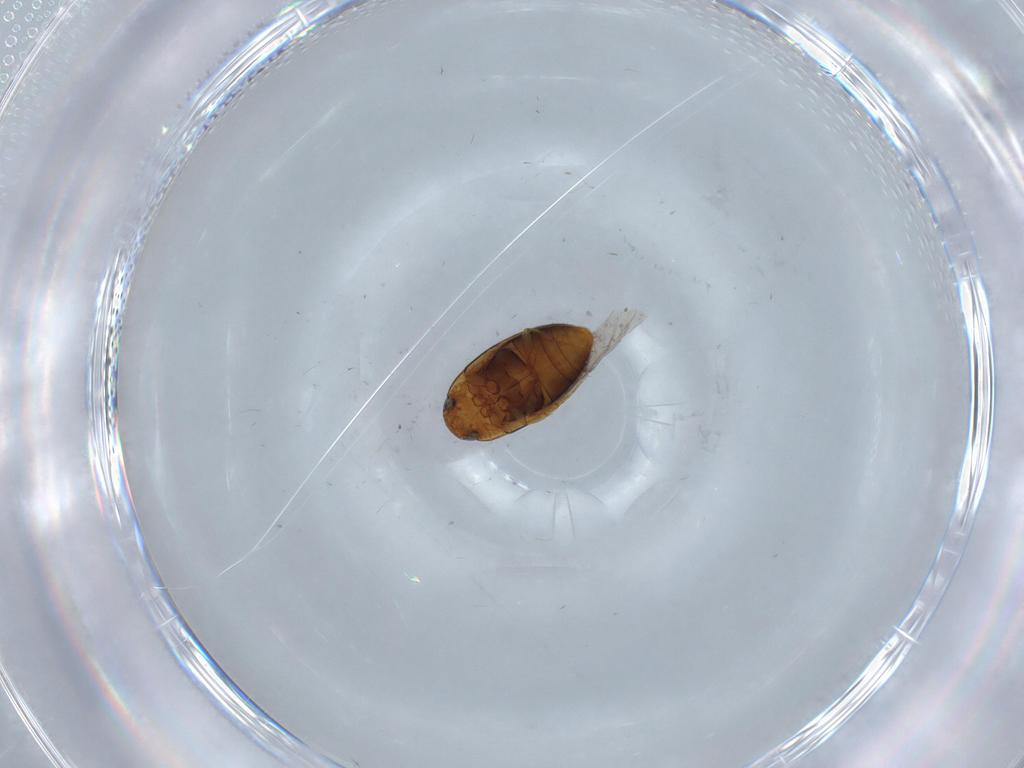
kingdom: Animalia
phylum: Arthropoda
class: Insecta
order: Coleoptera
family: Noteridae
